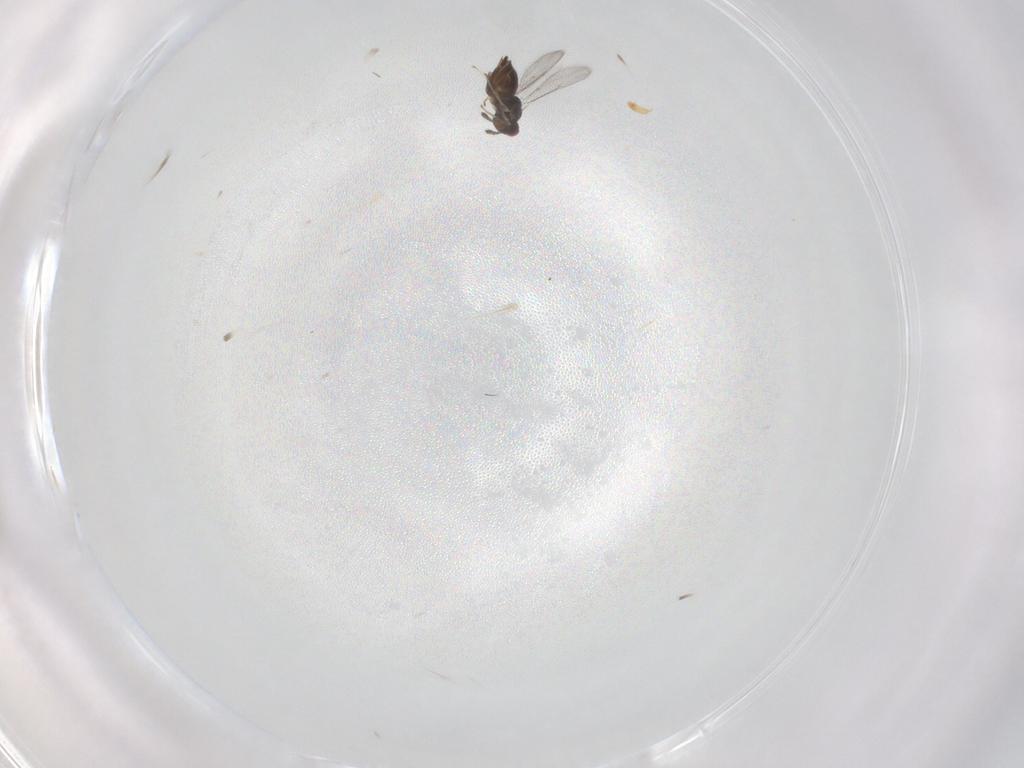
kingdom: Animalia
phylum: Arthropoda
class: Insecta
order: Hymenoptera
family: Eulophidae
